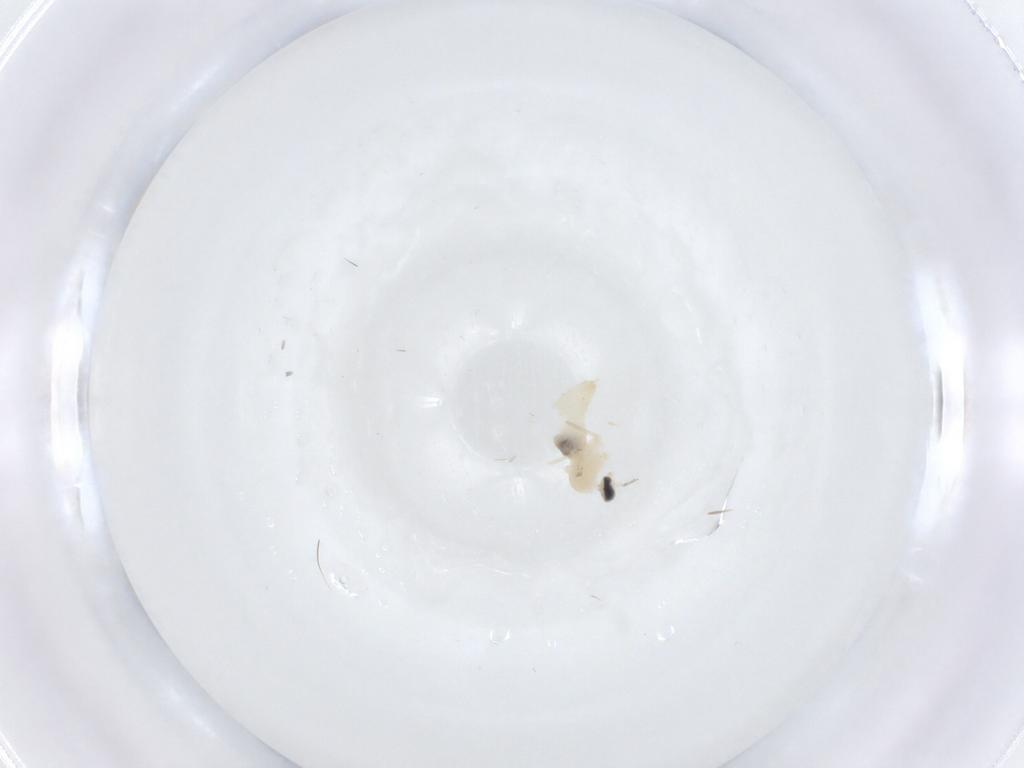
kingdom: Animalia
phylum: Arthropoda
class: Insecta
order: Diptera
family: Cecidomyiidae
